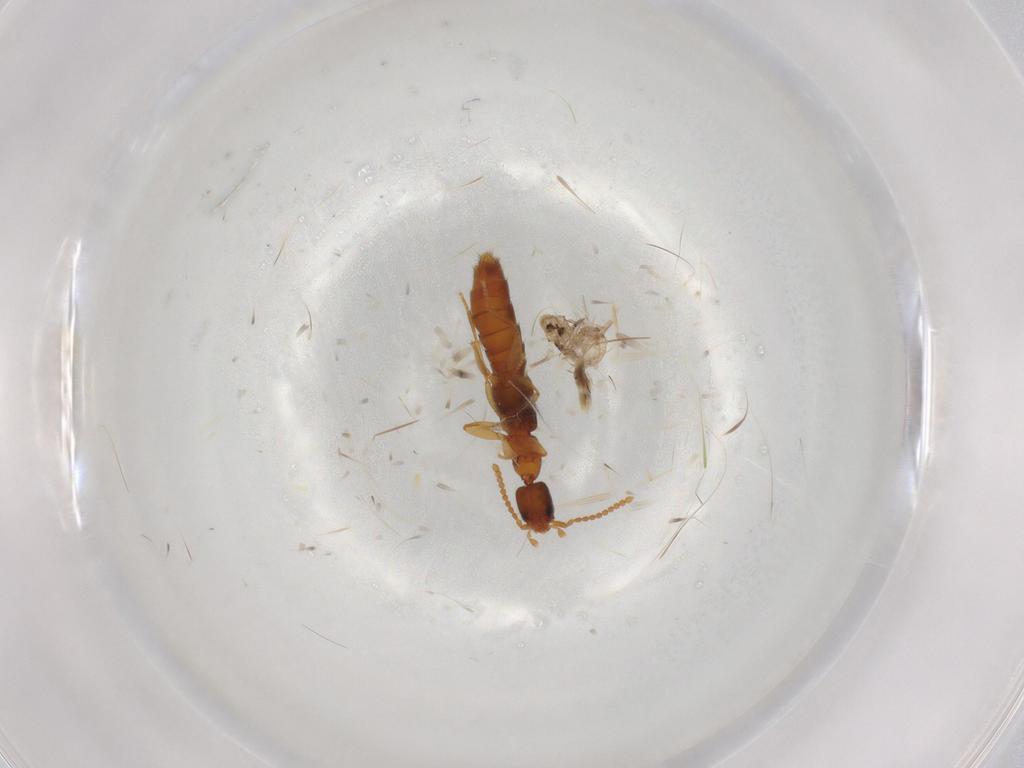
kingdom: Animalia
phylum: Arthropoda
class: Insecta
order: Coleoptera
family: Staphylinidae
